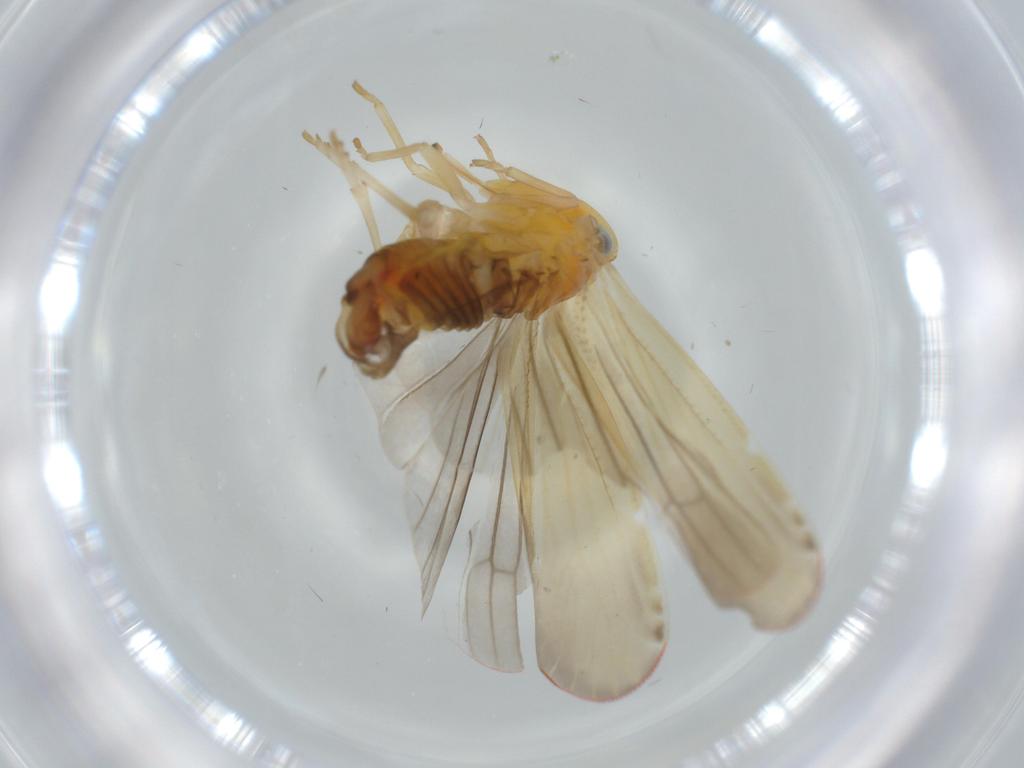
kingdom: Animalia
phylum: Arthropoda
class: Insecta
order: Hemiptera
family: Derbidae
